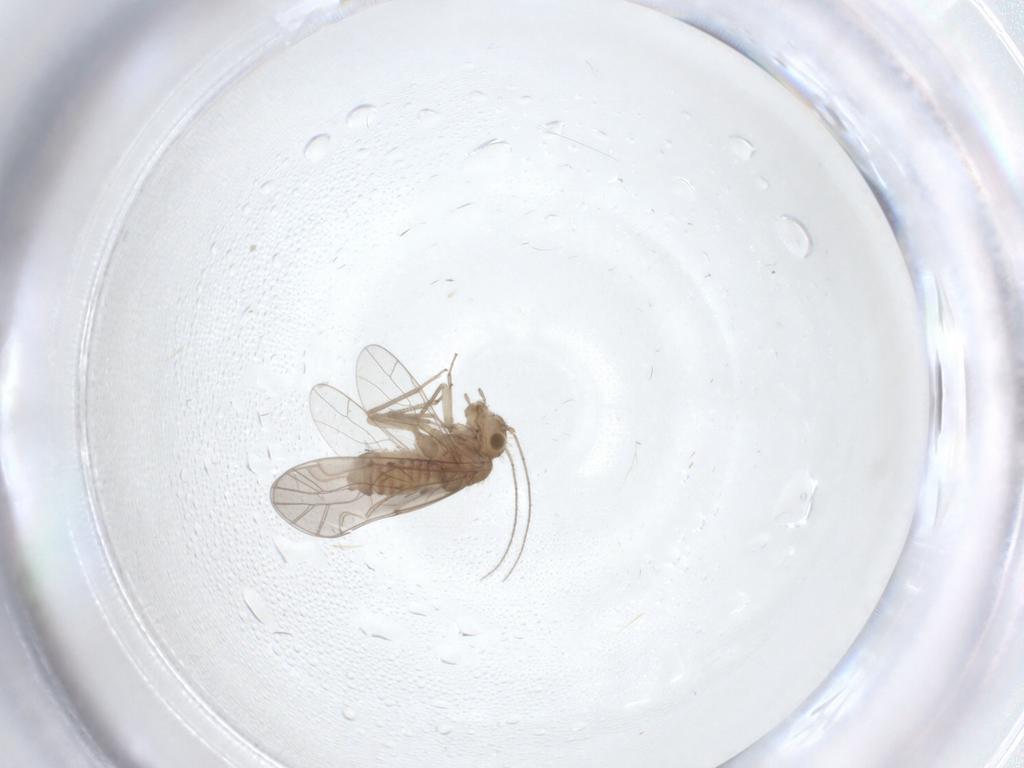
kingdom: Animalia
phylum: Arthropoda
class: Insecta
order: Psocodea
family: Lachesillidae
